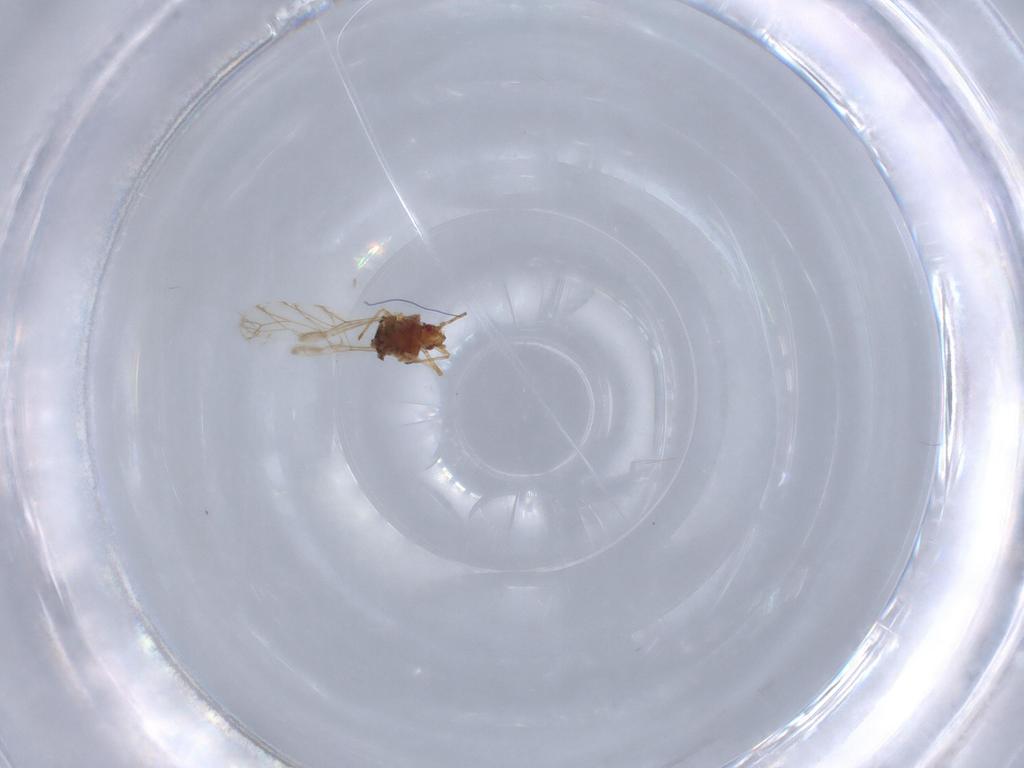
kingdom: Animalia
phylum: Arthropoda
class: Insecta
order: Hemiptera
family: Aphididae
